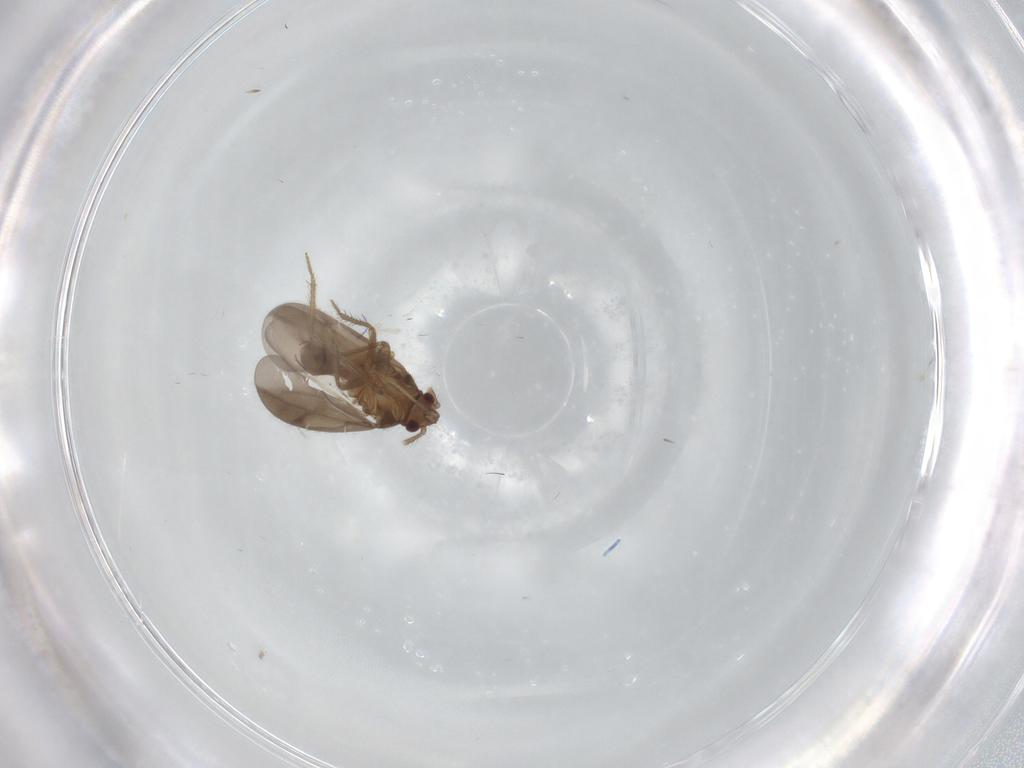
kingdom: Animalia
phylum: Arthropoda
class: Insecta
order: Hemiptera
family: Ceratocombidae
